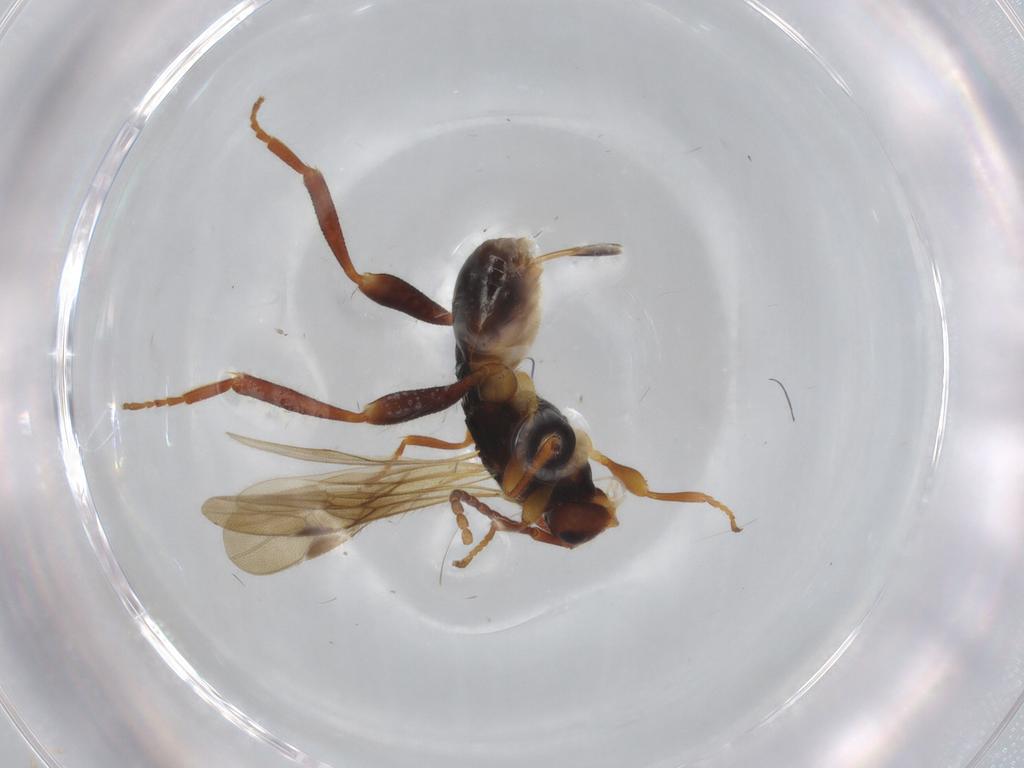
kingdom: Animalia
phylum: Arthropoda
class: Insecta
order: Hymenoptera
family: Braconidae
